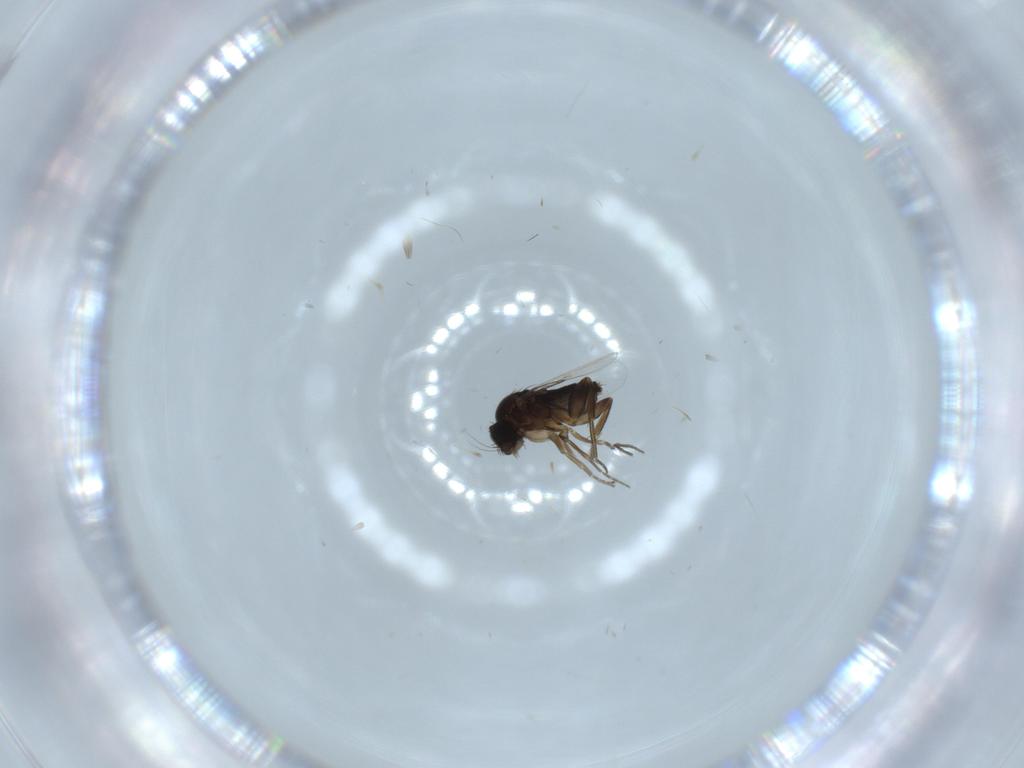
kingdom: Animalia
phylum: Arthropoda
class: Insecta
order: Diptera
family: Phoridae
